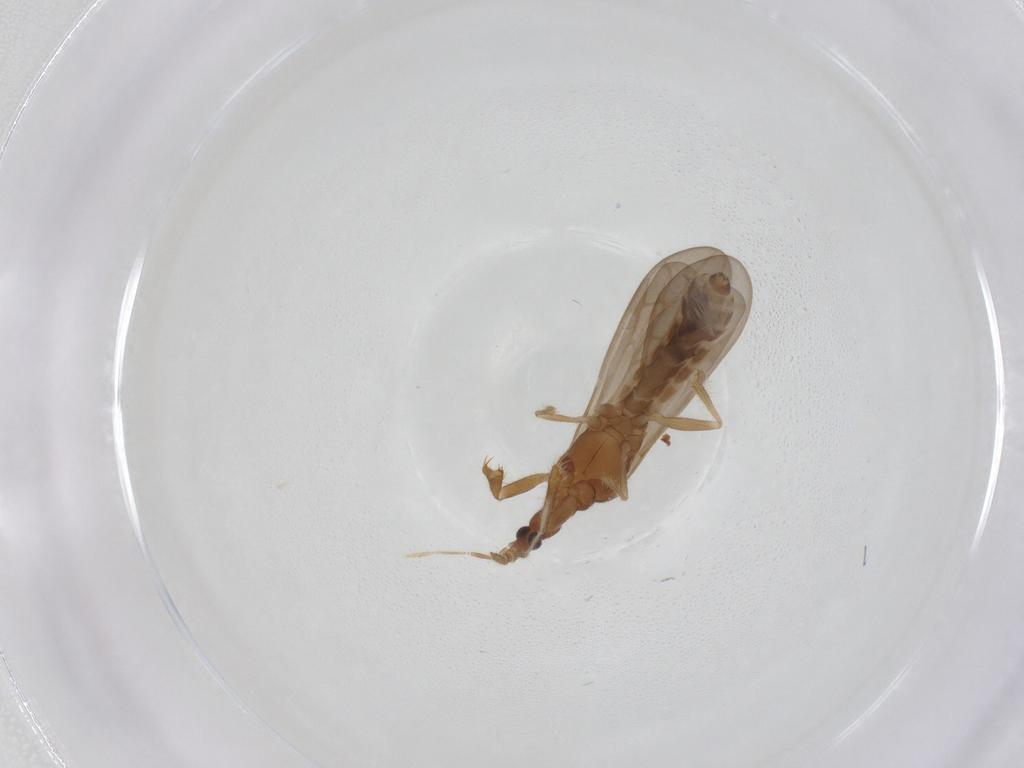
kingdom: Animalia
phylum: Arthropoda
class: Insecta
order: Hemiptera
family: Enicocephalidae
